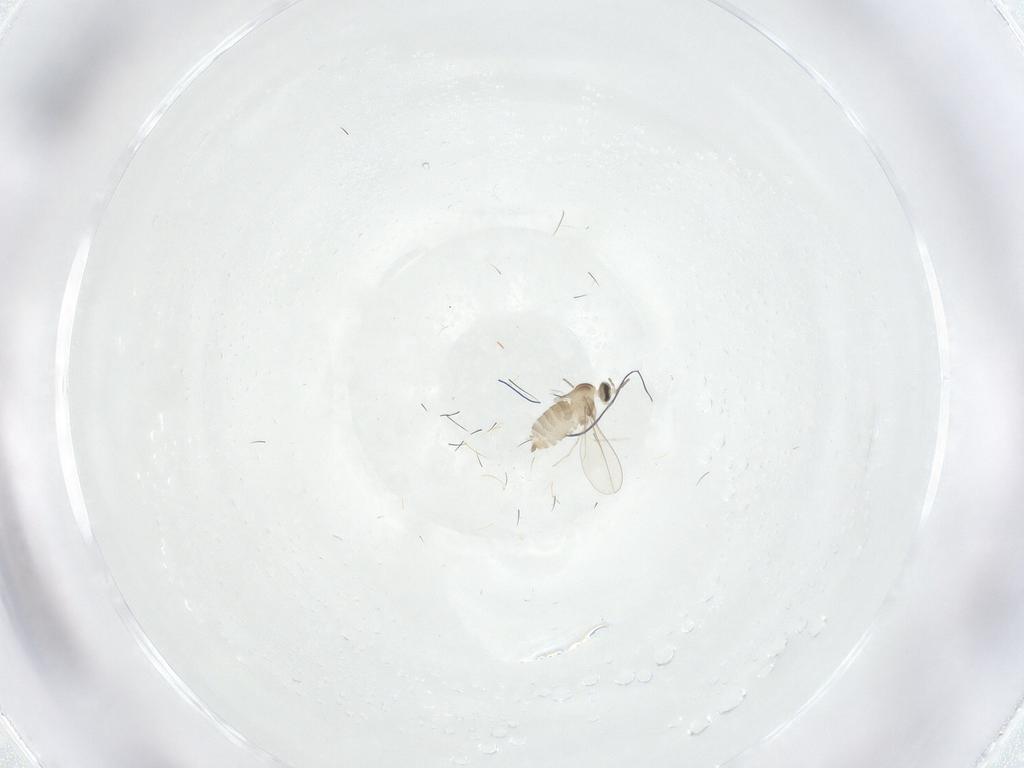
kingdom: Animalia
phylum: Arthropoda
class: Insecta
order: Diptera
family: Cecidomyiidae
